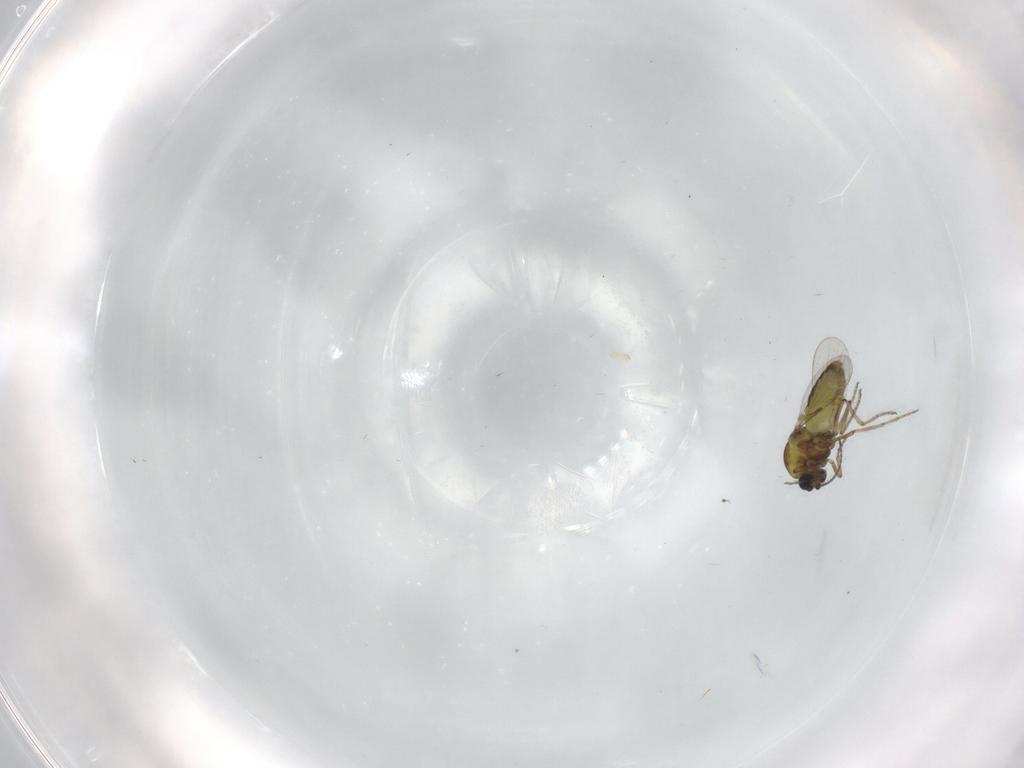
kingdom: Animalia
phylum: Arthropoda
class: Insecta
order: Diptera
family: Ceratopogonidae
